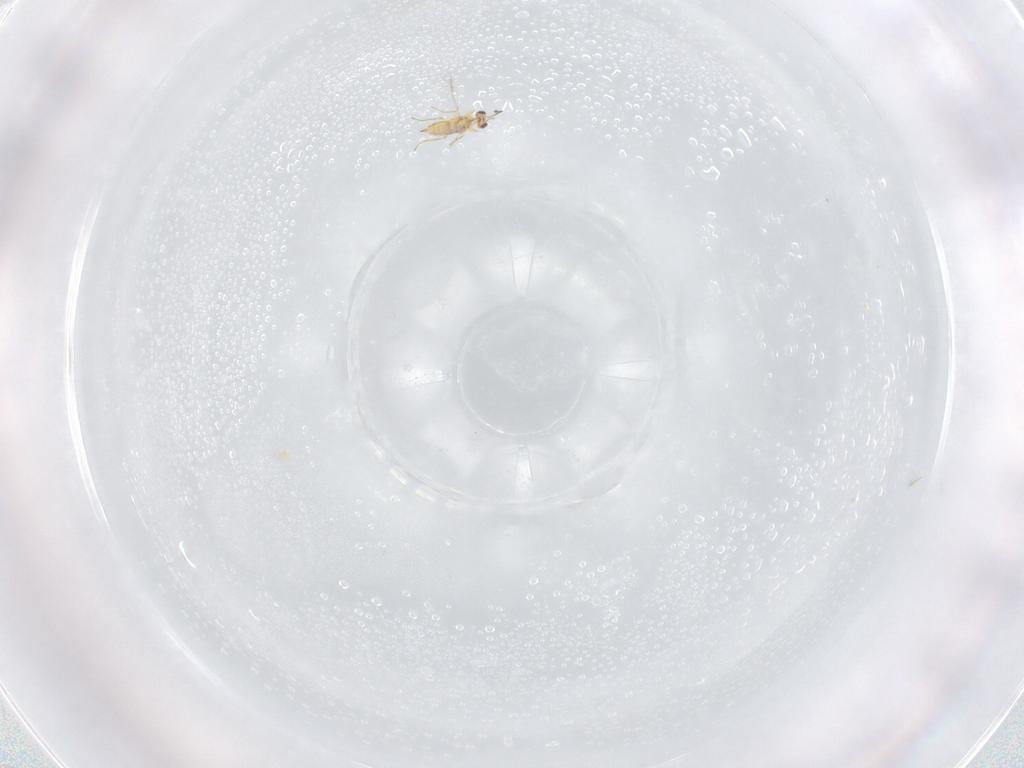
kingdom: Animalia
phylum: Arthropoda
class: Insecta
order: Hymenoptera
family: Mymaridae
